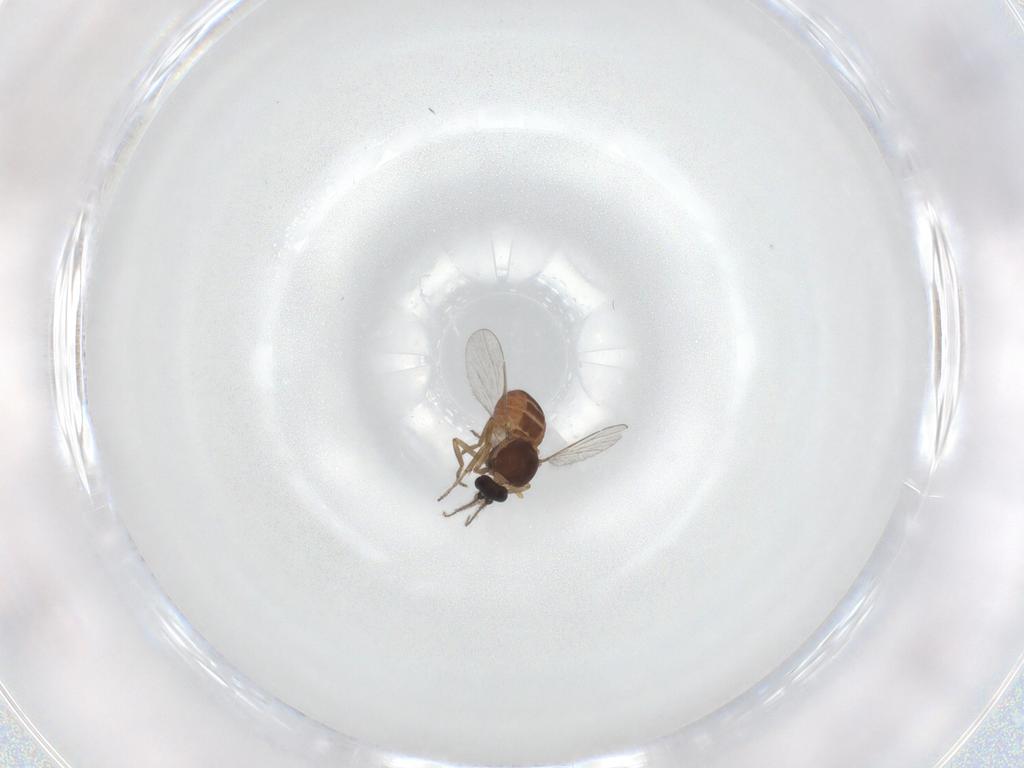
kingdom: Animalia
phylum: Arthropoda
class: Insecta
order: Diptera
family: Chloropidae
